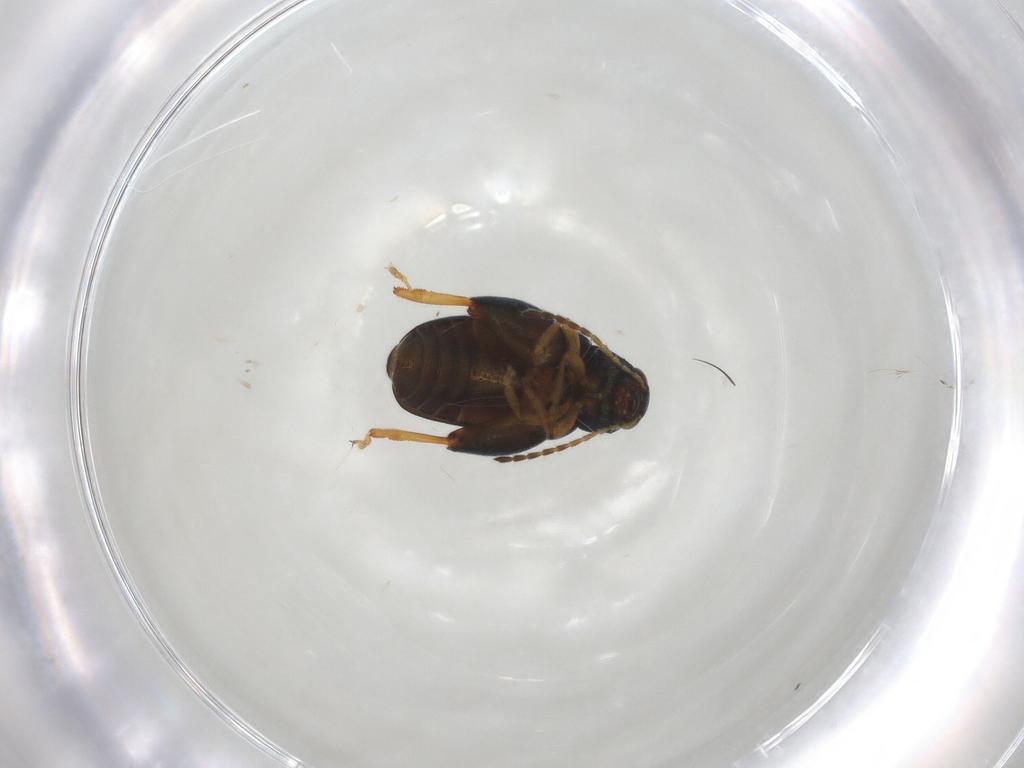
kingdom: Animalia
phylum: Arthropoda
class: Insecta
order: Coleoptera
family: Chrysomelidae
